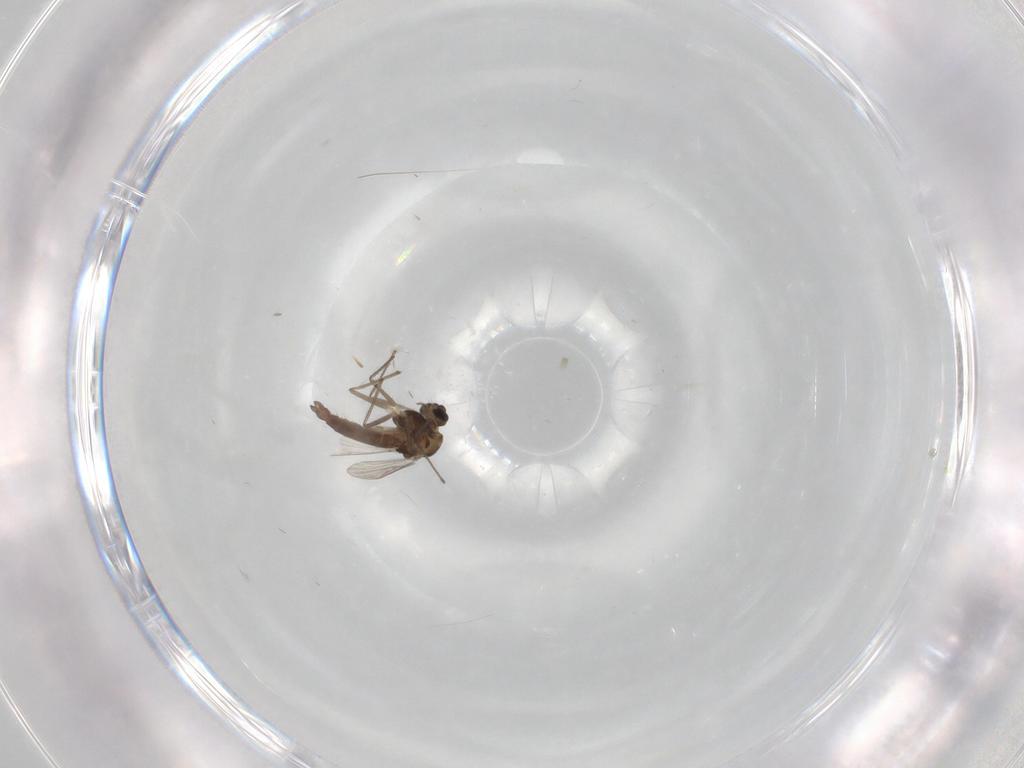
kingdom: Animalia
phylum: Arthropoda
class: Insecta
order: Diptera
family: Chironomidae
